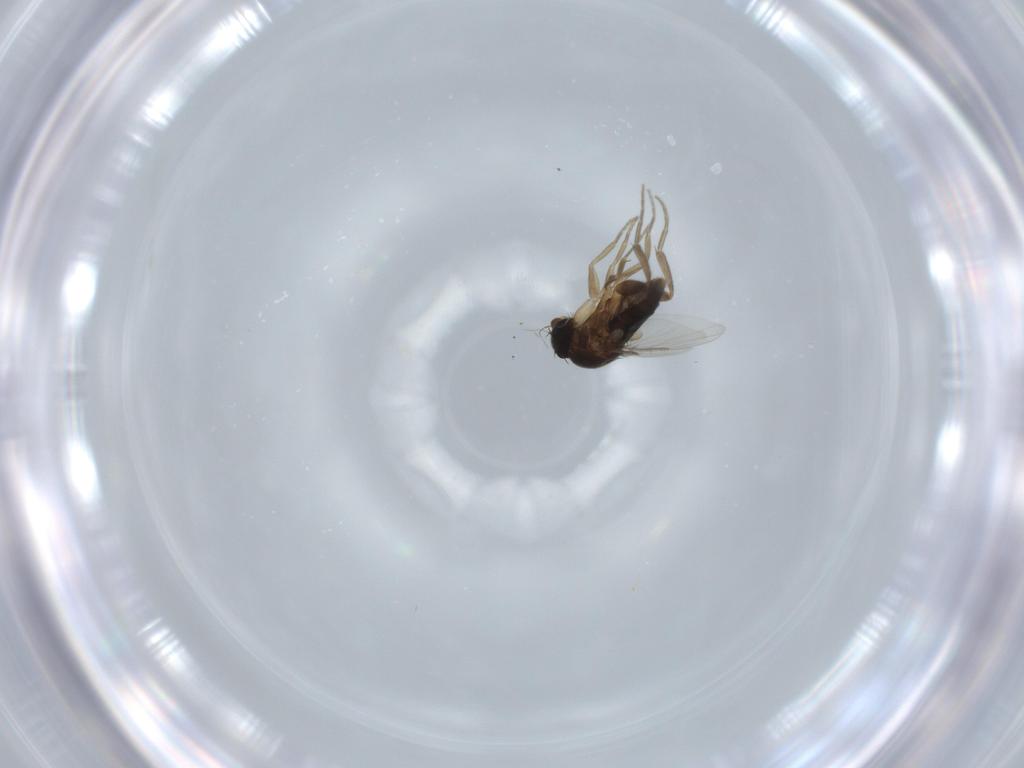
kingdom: Animalia
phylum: Arthropoda
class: Insecta
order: Diptera
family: Phoridae
